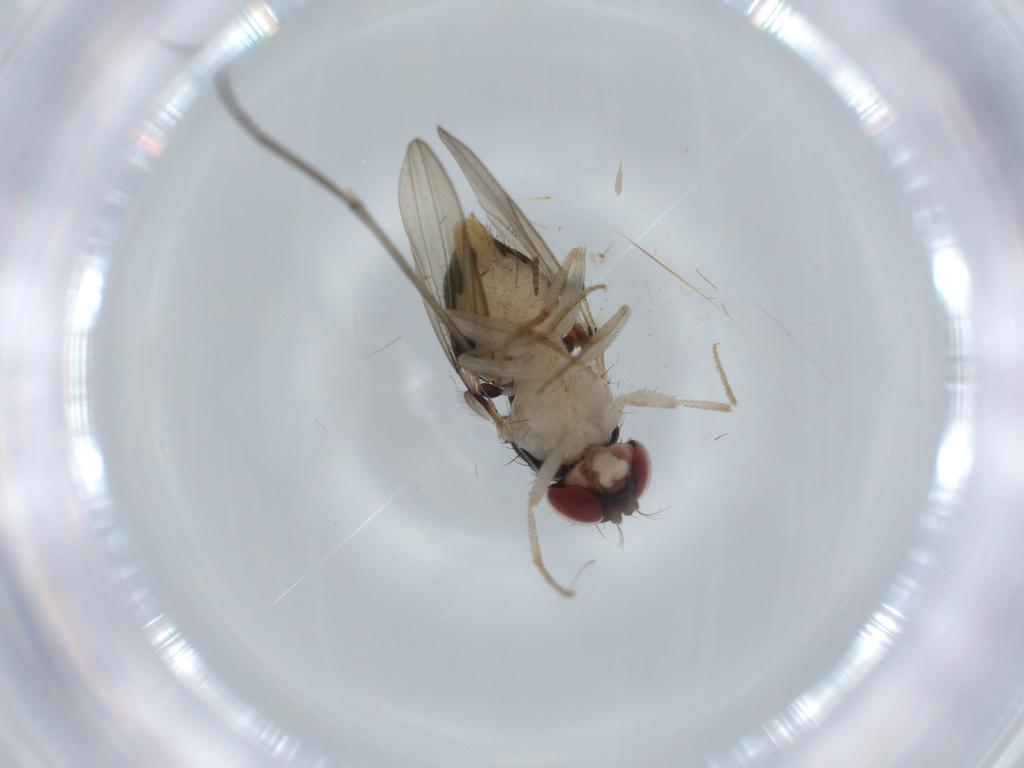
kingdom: Animalia
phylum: Arthropoda
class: Insecta
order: Diptera
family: Drosophilidae
